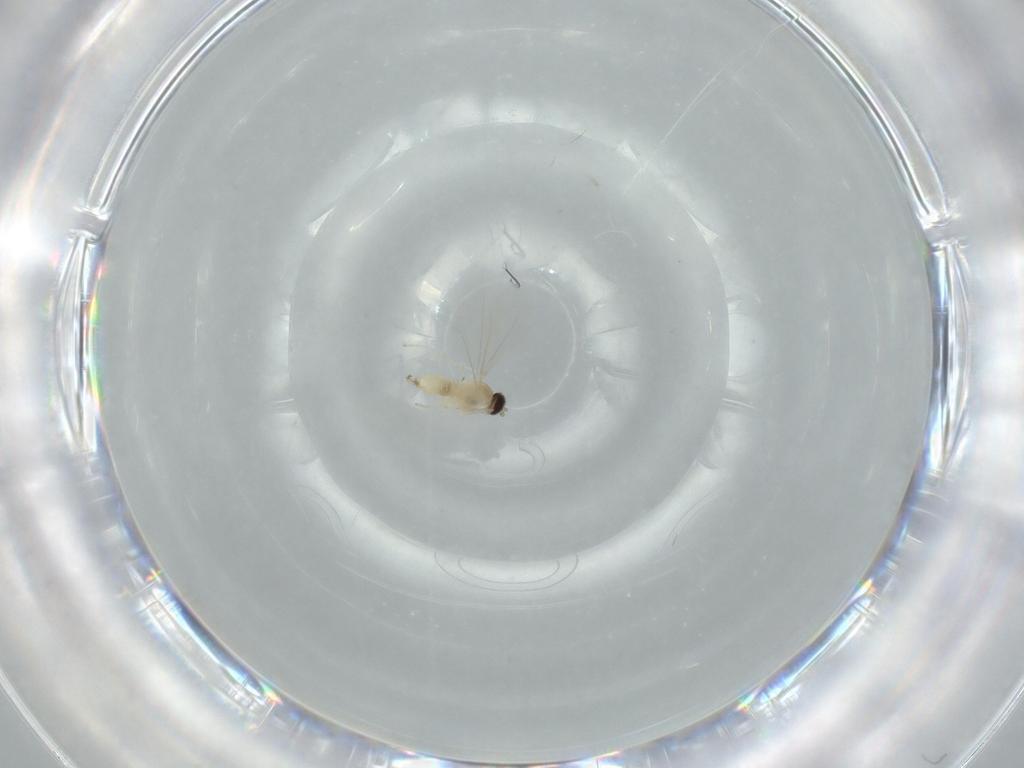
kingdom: Animalia
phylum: Arthropoda
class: Insecta
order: Diptera
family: Cecidomyiidae
